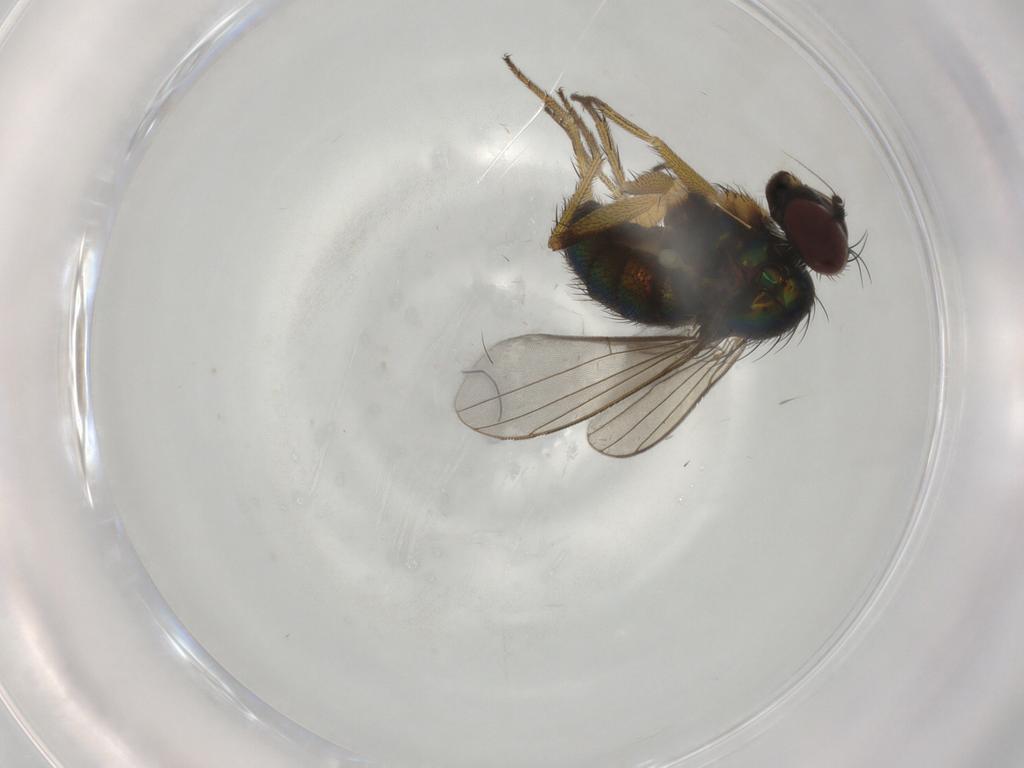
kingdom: Animalia
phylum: Arthropoda
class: Insecta
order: Diptera
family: Dolichopodidae
